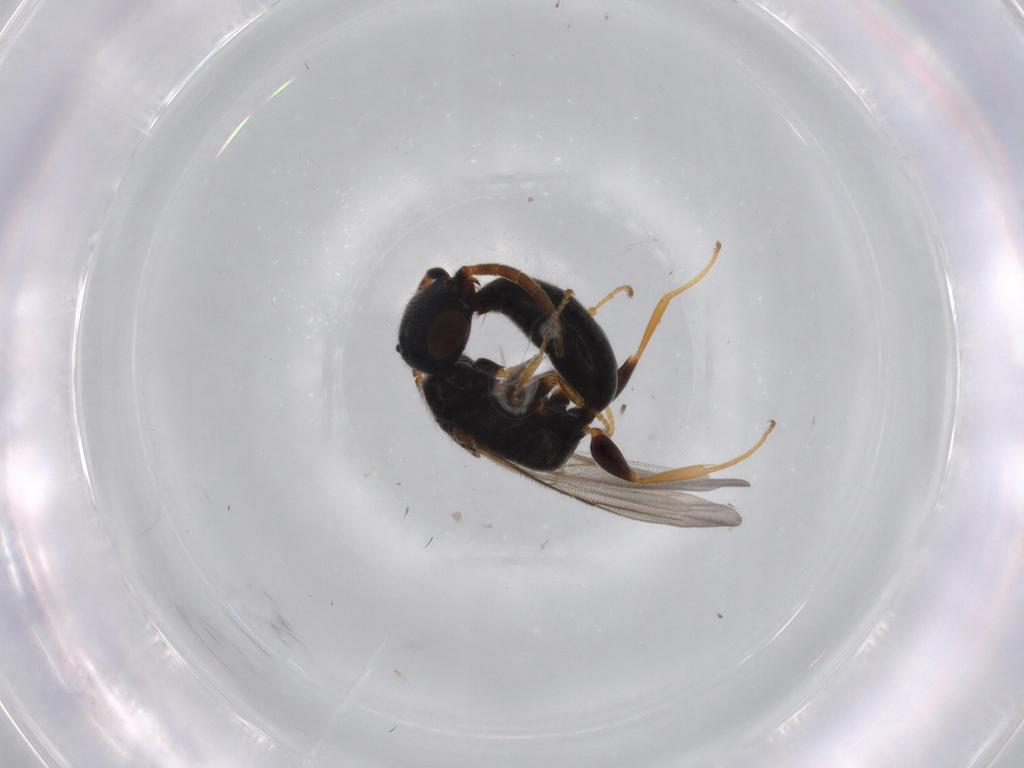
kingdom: Animalia
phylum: Arthropoda
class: Insecta
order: Hymenoptera
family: Bethylidae
